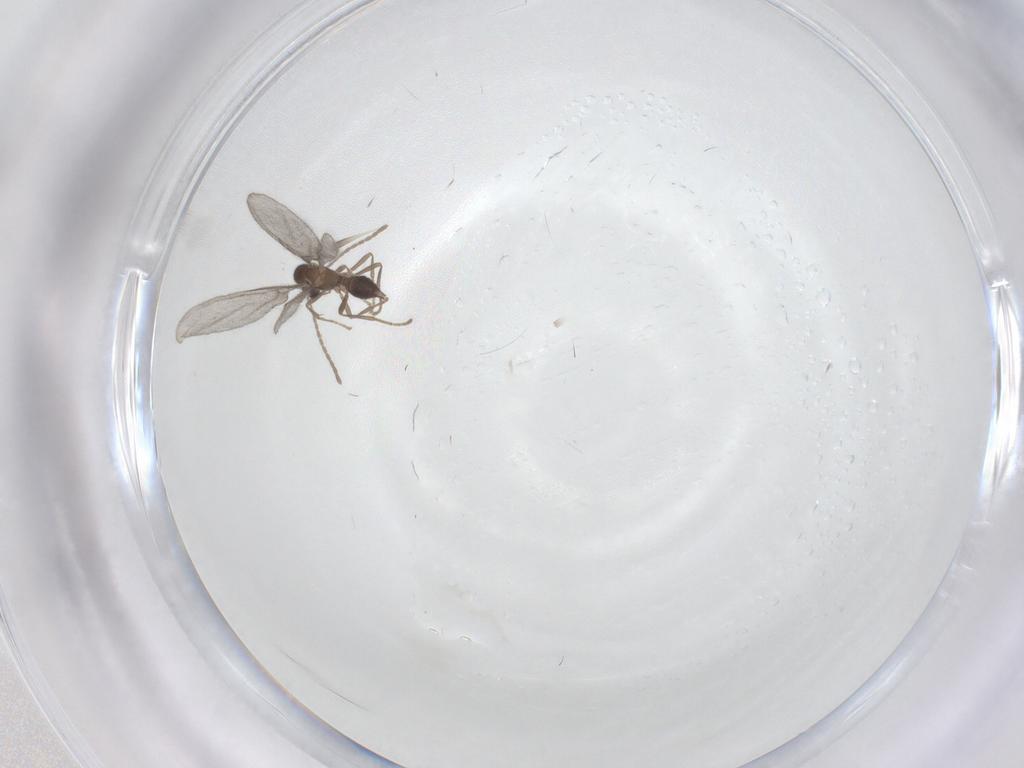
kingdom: Animalia
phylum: Arthropoda
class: Insecta
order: Hymenoptera
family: Formicidae
